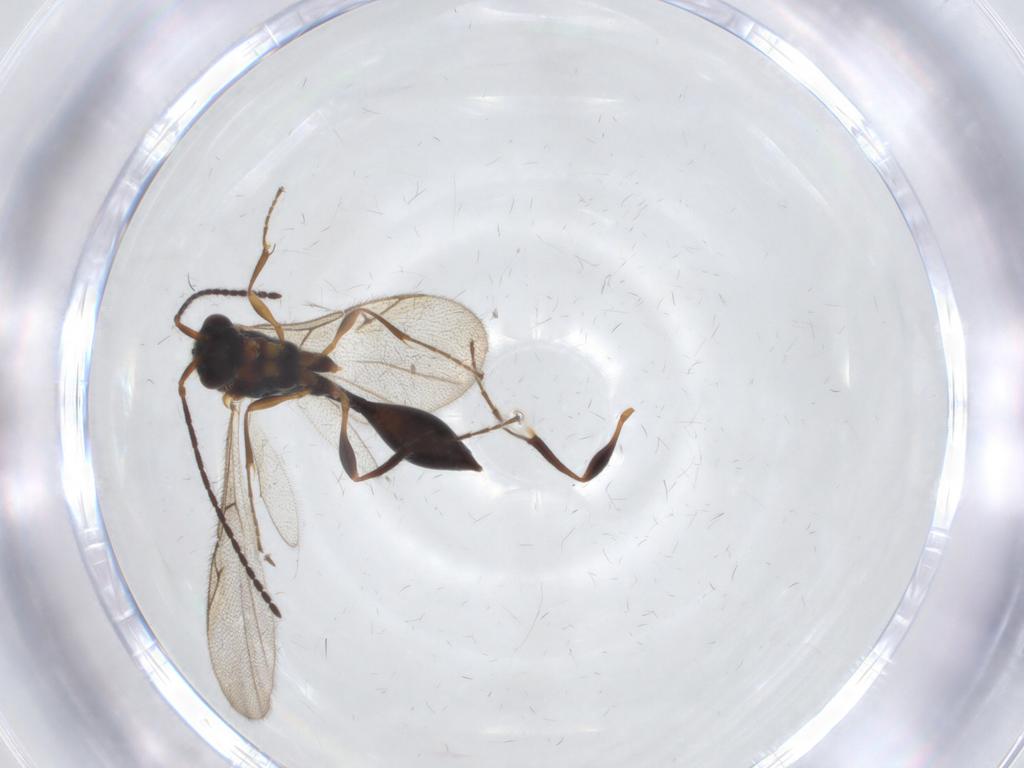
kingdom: Animalia
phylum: Arthropoda
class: Insecta
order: Hymenoptera
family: Diapriidae
